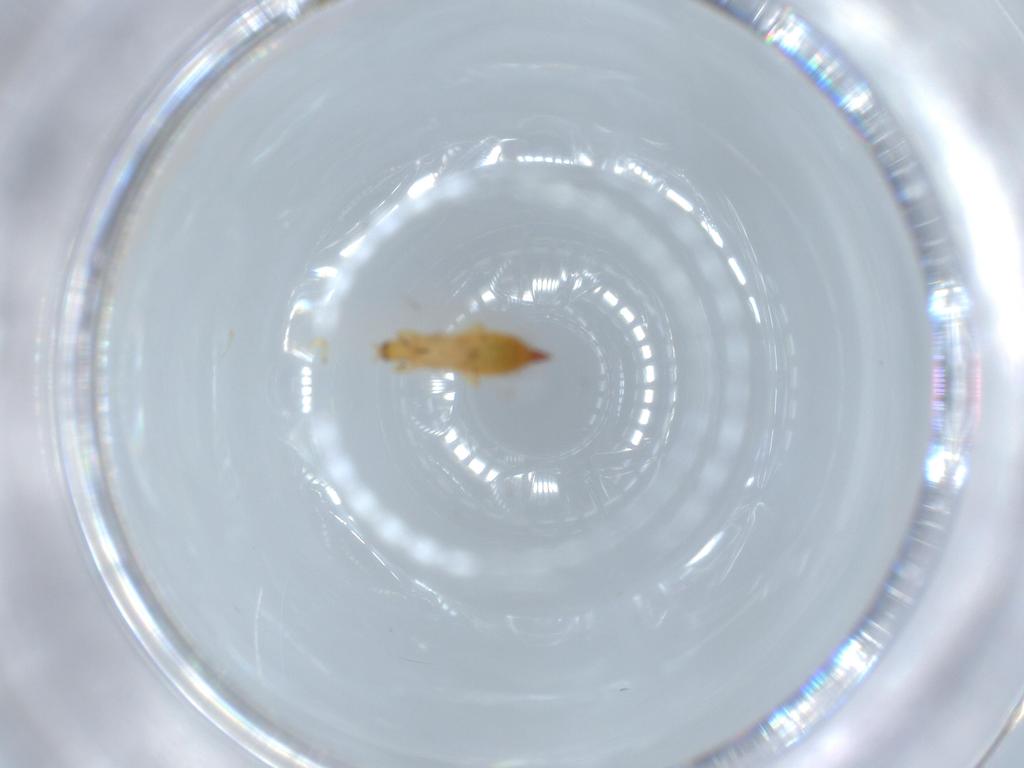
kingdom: Animalia
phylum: Arthropoda
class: Insecta
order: Thysanoptera
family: Phlaeothripidae
